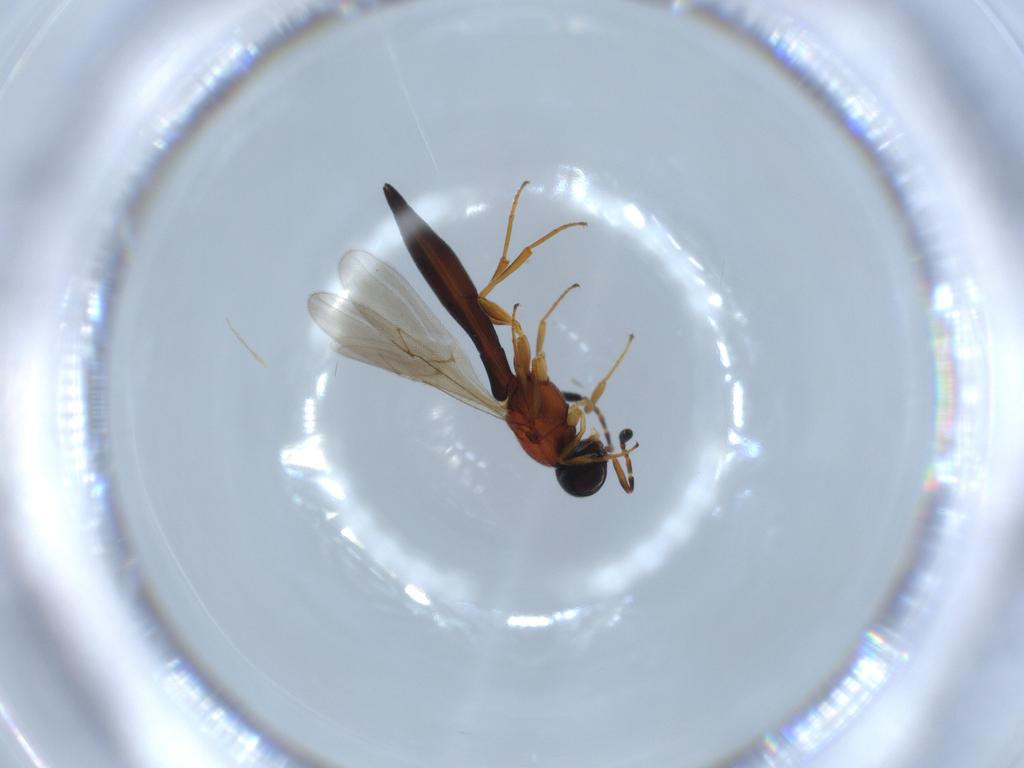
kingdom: Animalia
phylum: Arthropoda
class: Insecta
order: Hymenoptera
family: Scelionidae
